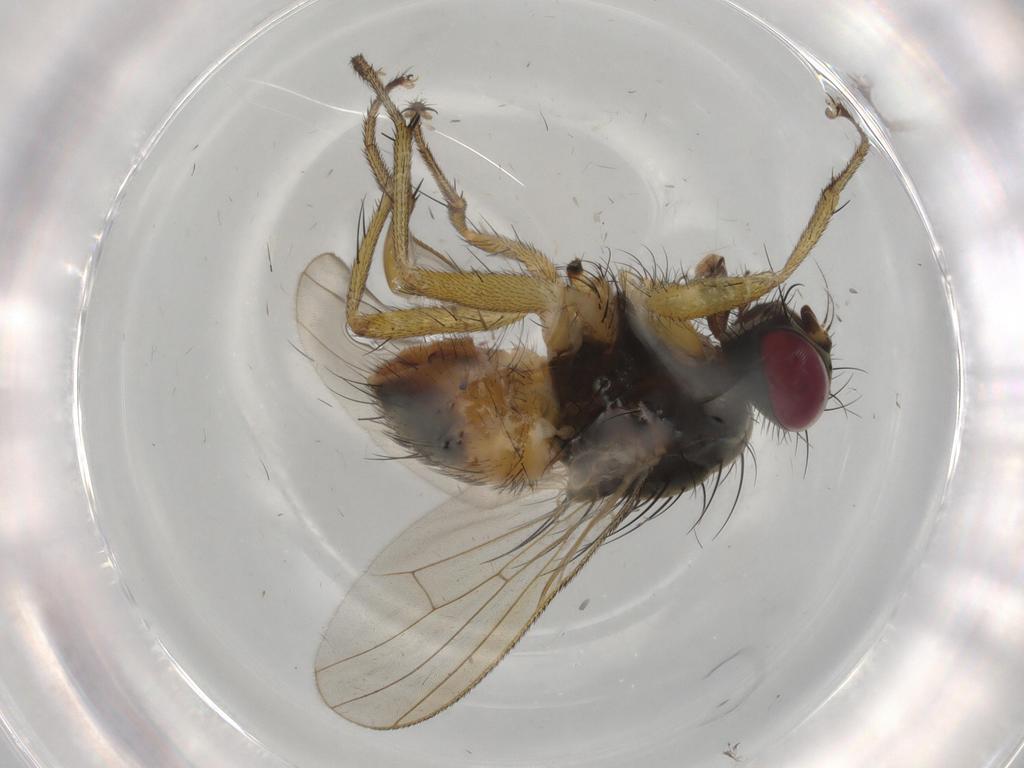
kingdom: Animalia
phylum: Arthropoda
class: Insecta
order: Diptera
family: Muscidae
